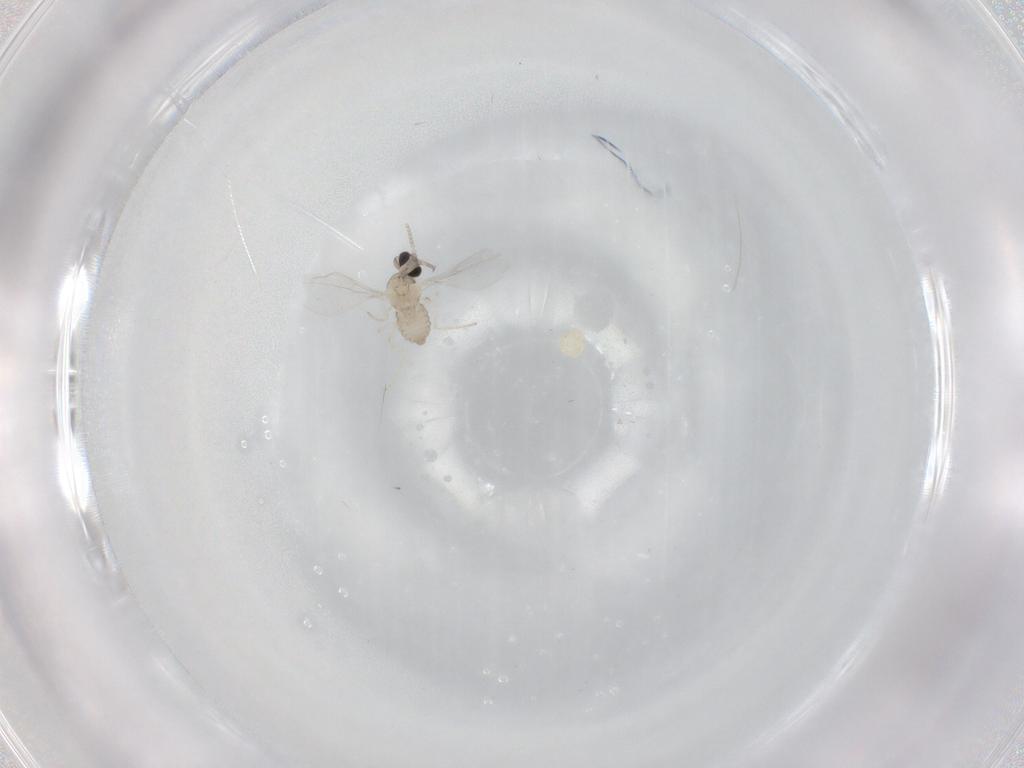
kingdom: Animalia
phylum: Arthropoda
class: Insecta
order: Diptera
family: Cecidomyiidae
